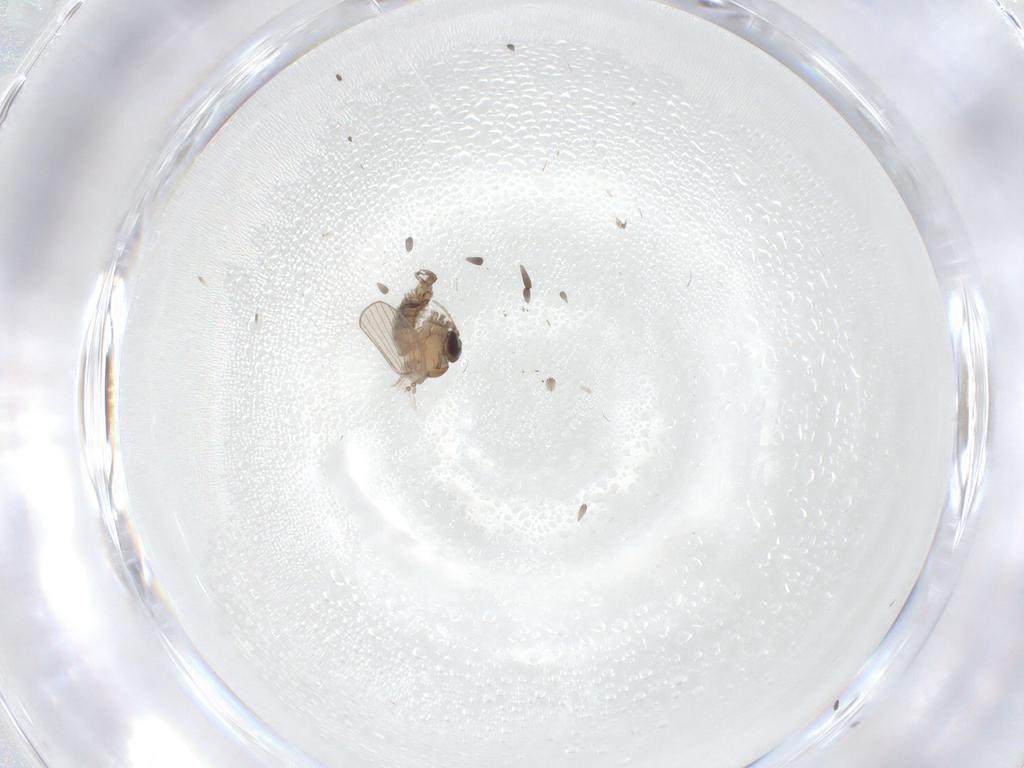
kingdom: Animalia
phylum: Arthropoda
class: Insecta
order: Diptera
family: Psychodidae
